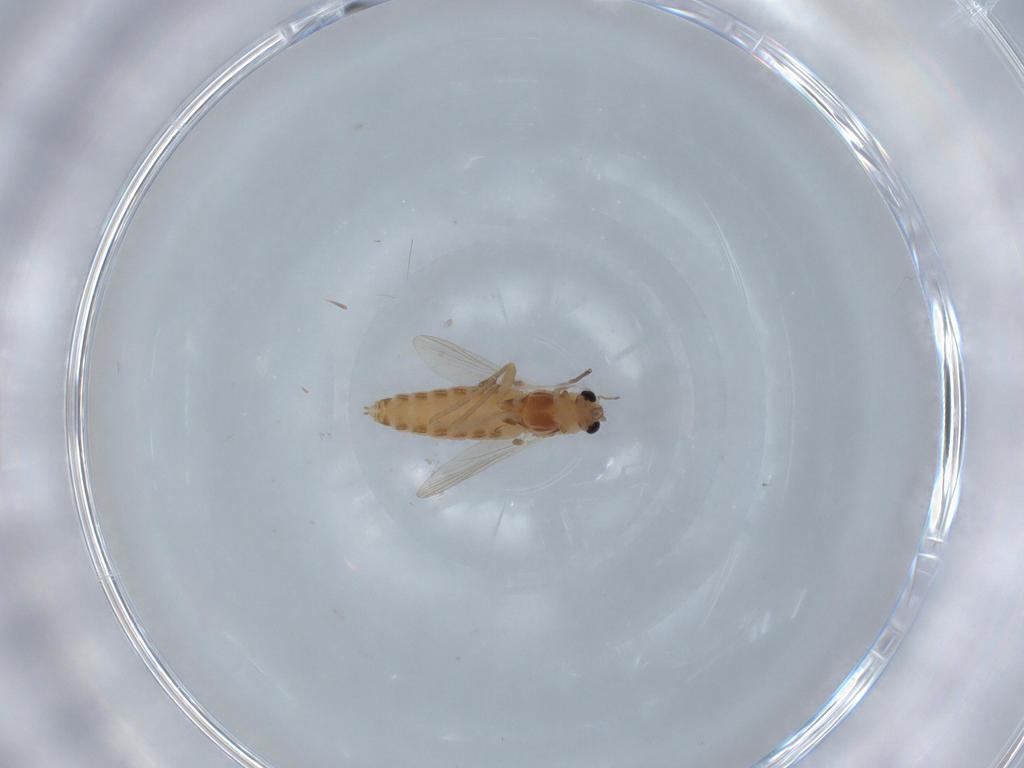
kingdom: Animalia
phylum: Arthropoda
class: Insecta
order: Diptera
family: Chironomidae
